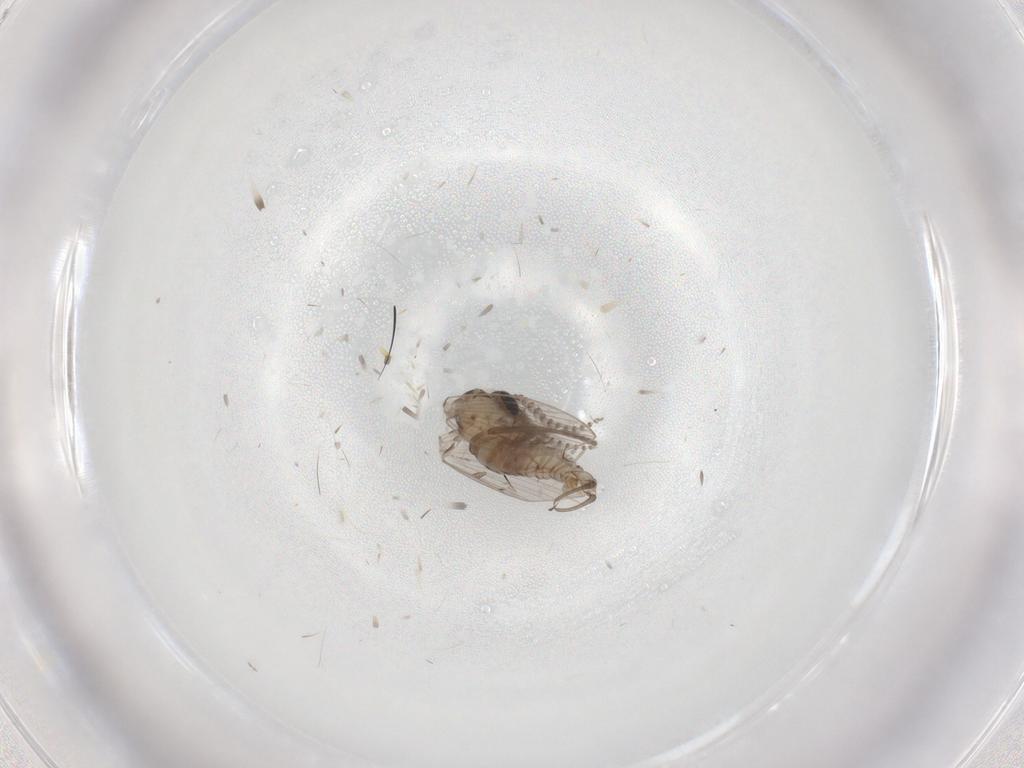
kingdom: Animalia
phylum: Arthropoda
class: Insecta
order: Diptera
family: Psychodidae
